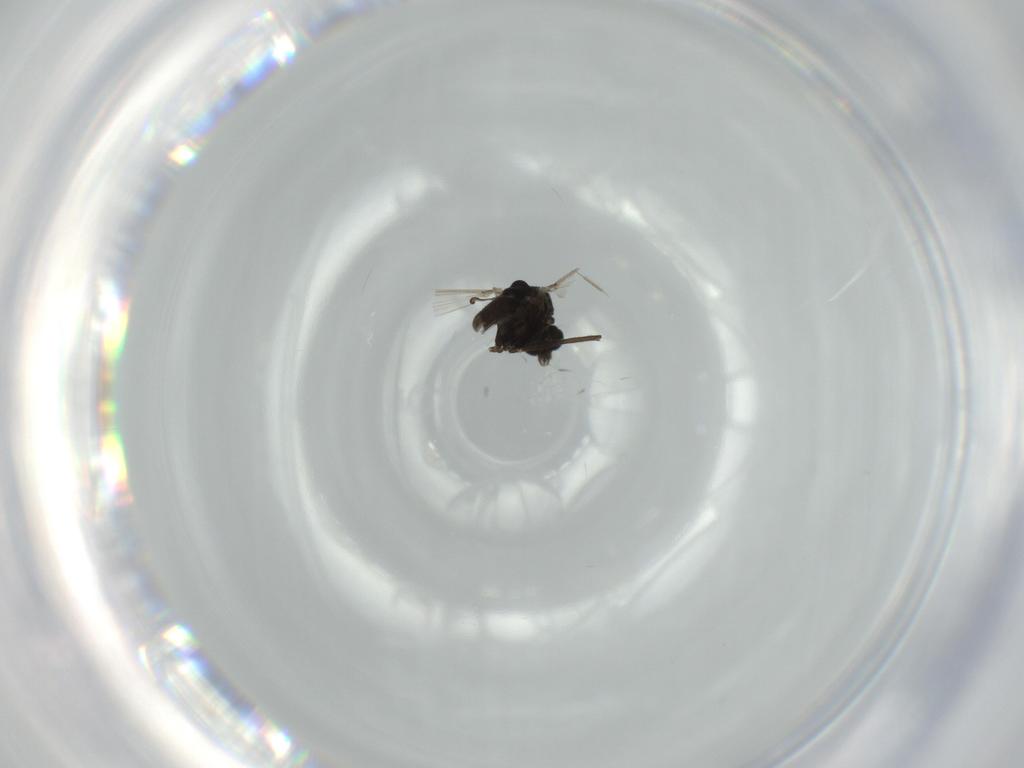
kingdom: Animalia
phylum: Arthropoda
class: Insecta
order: Diptera
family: Chironomidae
